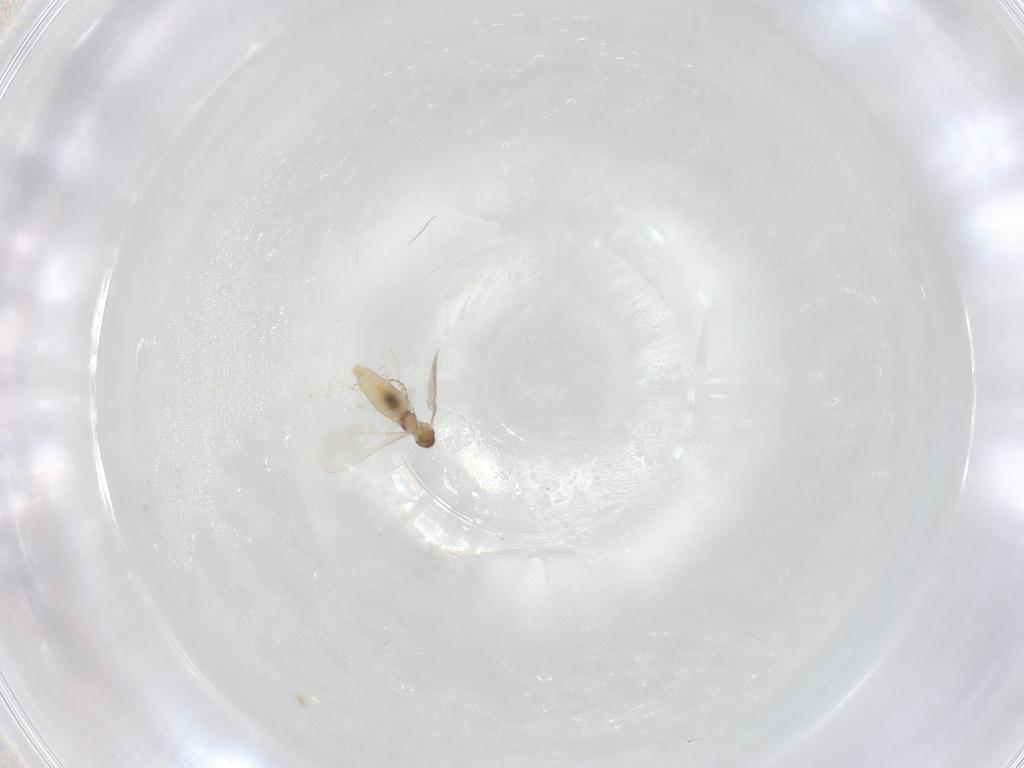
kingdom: Animalia
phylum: Arthropoda
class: Insecta
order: Diptera
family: Cecidomyiidae
